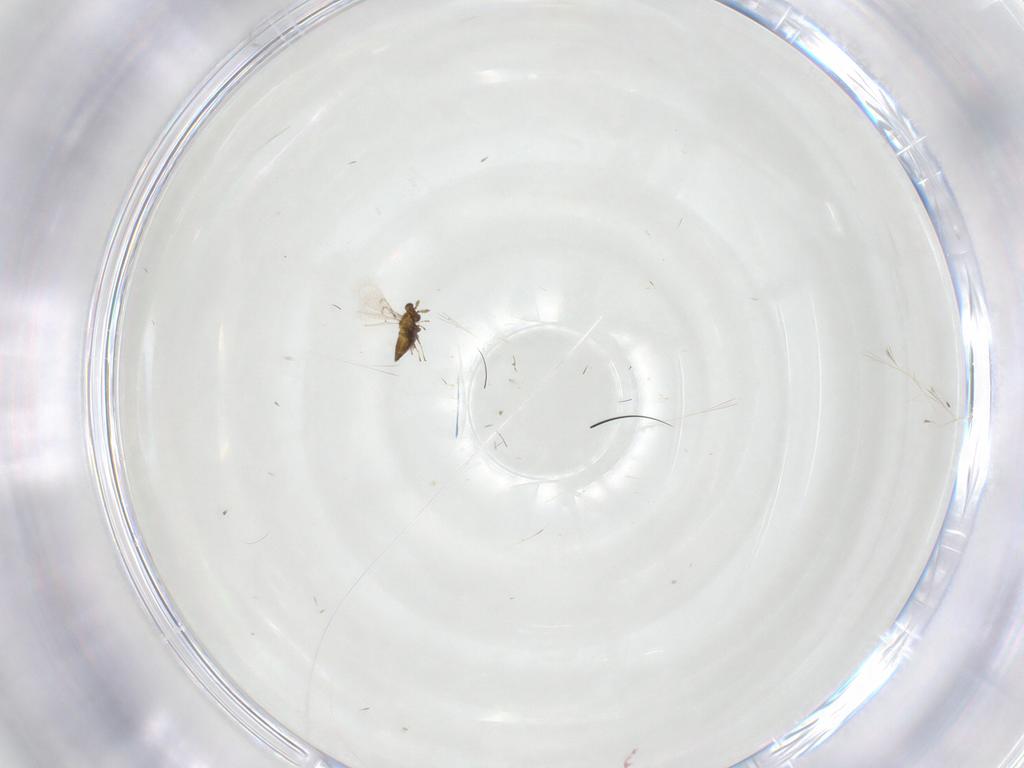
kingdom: Animalia
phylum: Arthropoda
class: Insecta
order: Hymenoptera
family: Trichogrammatidae
